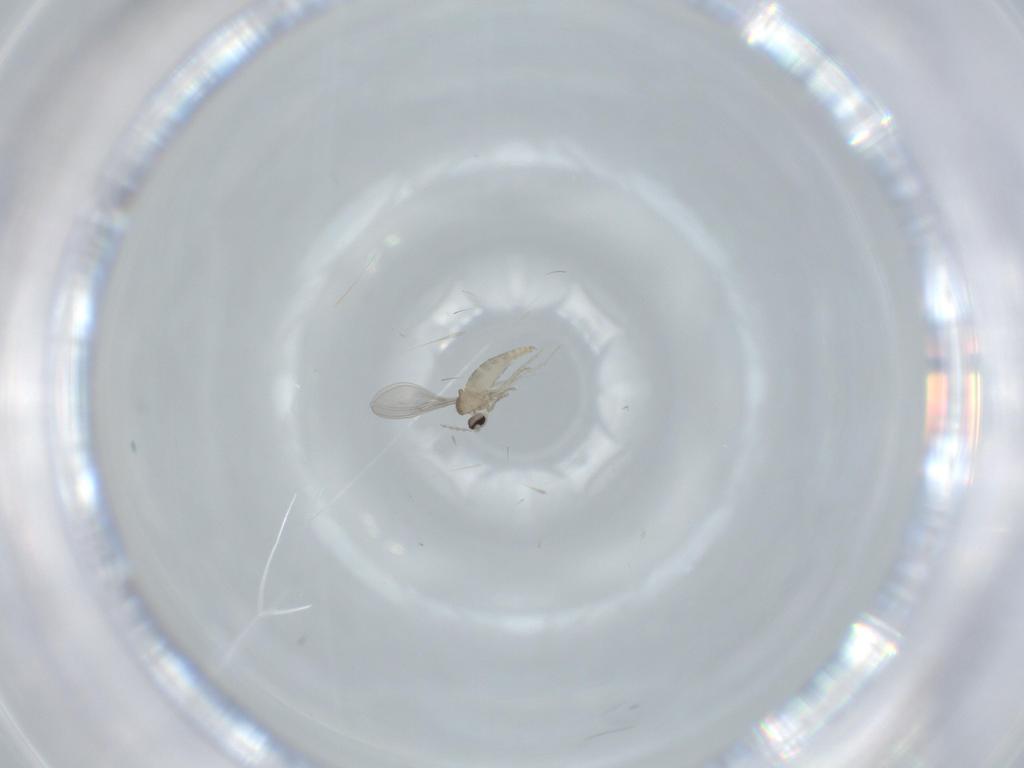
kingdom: Animalia
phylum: Arthropoda
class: Insecta
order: Diptera
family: Cecidomyiidae
